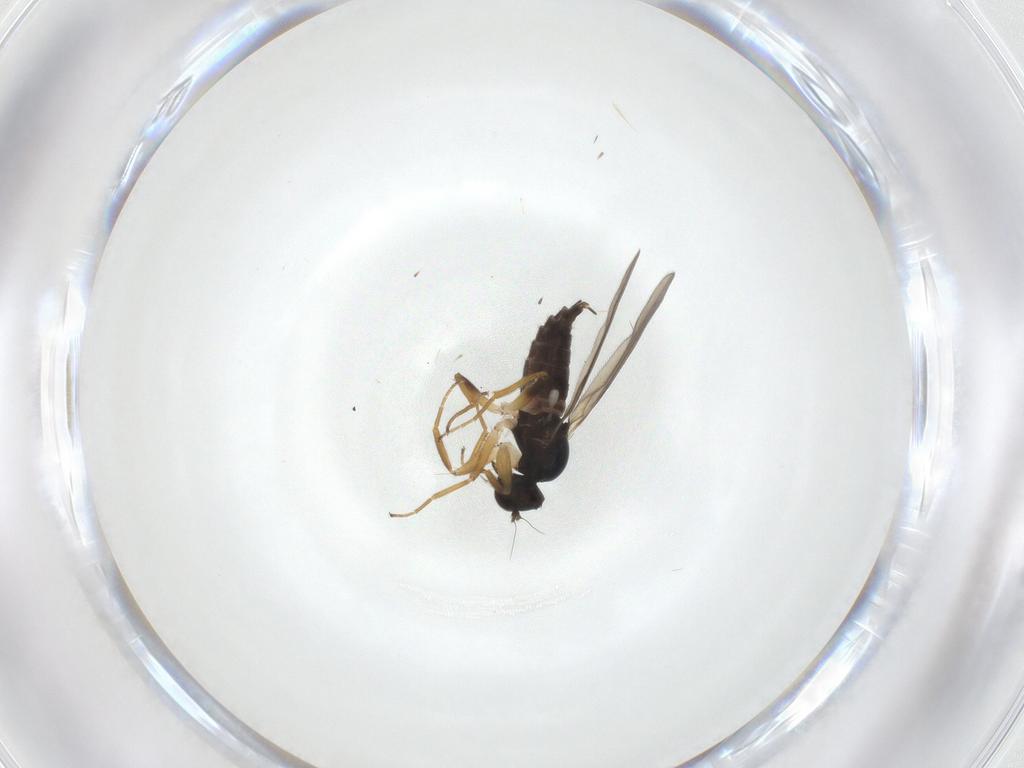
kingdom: Animalia
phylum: Arthropoda
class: Insecta
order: Diptera
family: Hybotidae
